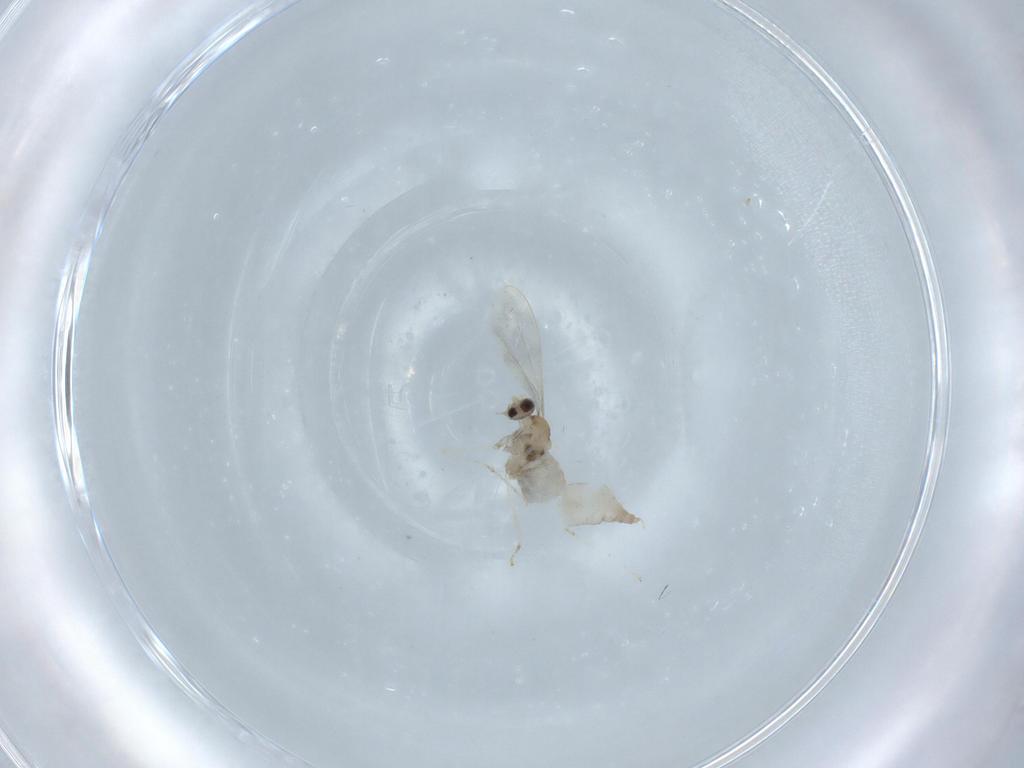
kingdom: Animalia
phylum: Arthropoda
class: Insecta
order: Diptera
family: Cecidomyiidae
